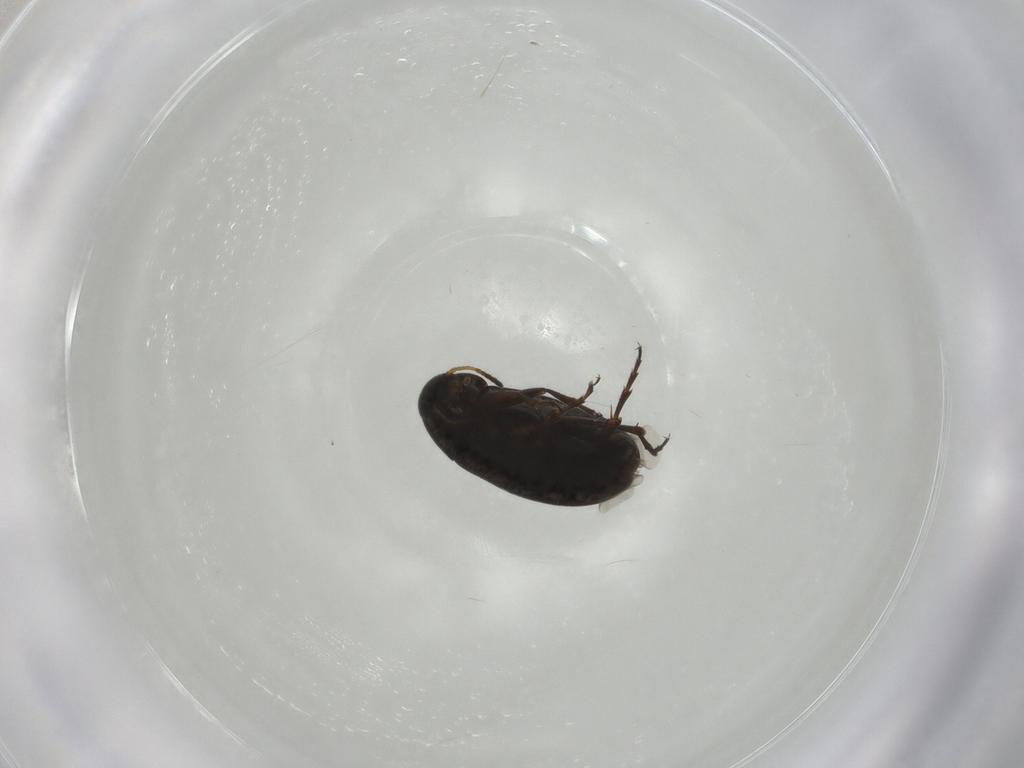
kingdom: Animalia
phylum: Arthropoda
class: Insecta
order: Coleoptera
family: Scraptiidae
